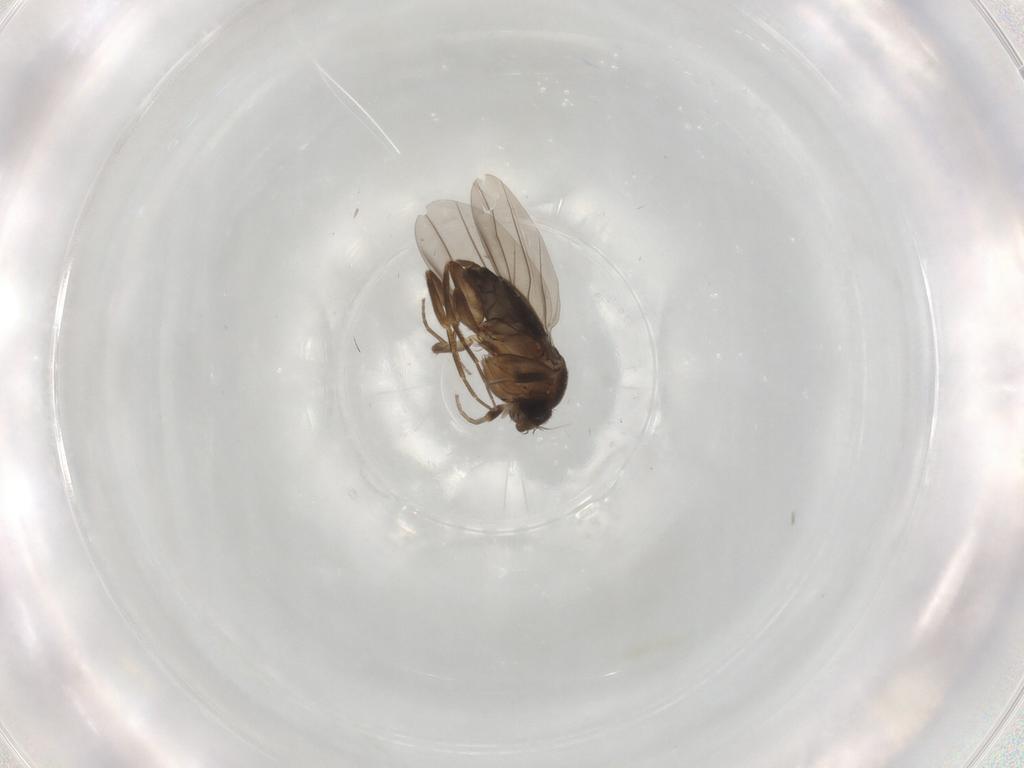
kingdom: Animalia
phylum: Arthropoda
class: Insecta
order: Diptera
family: Phoridae
